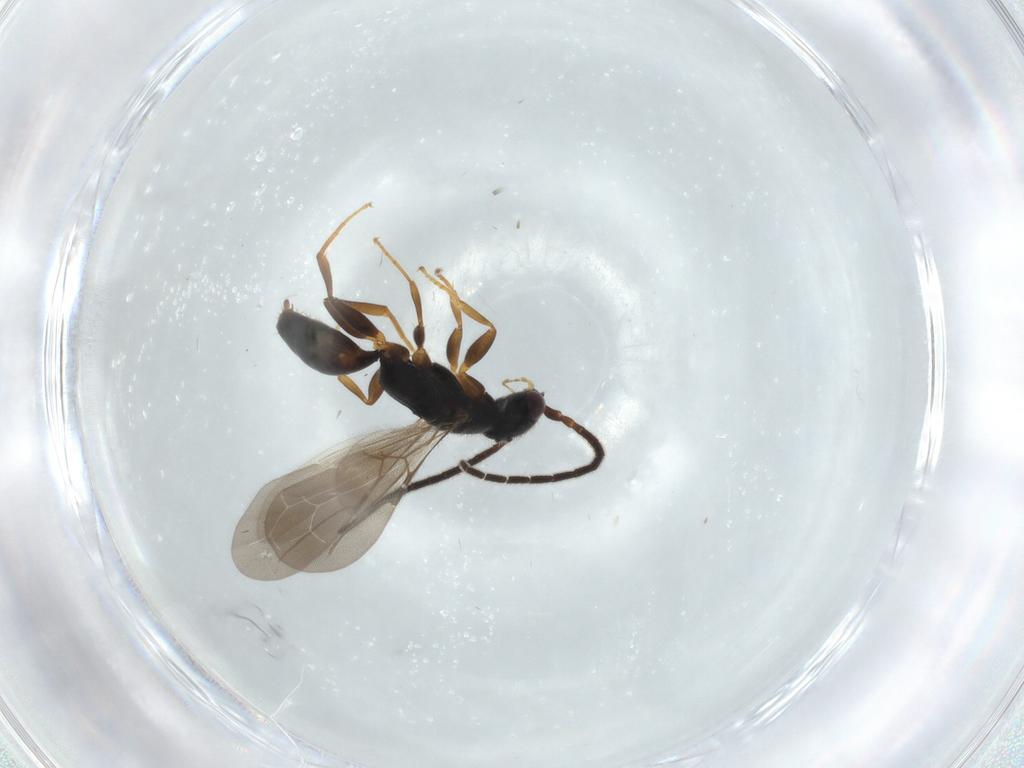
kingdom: Animalia
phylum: Arthropoda
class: Insecta
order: Hymenoptera
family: Bethylidae
